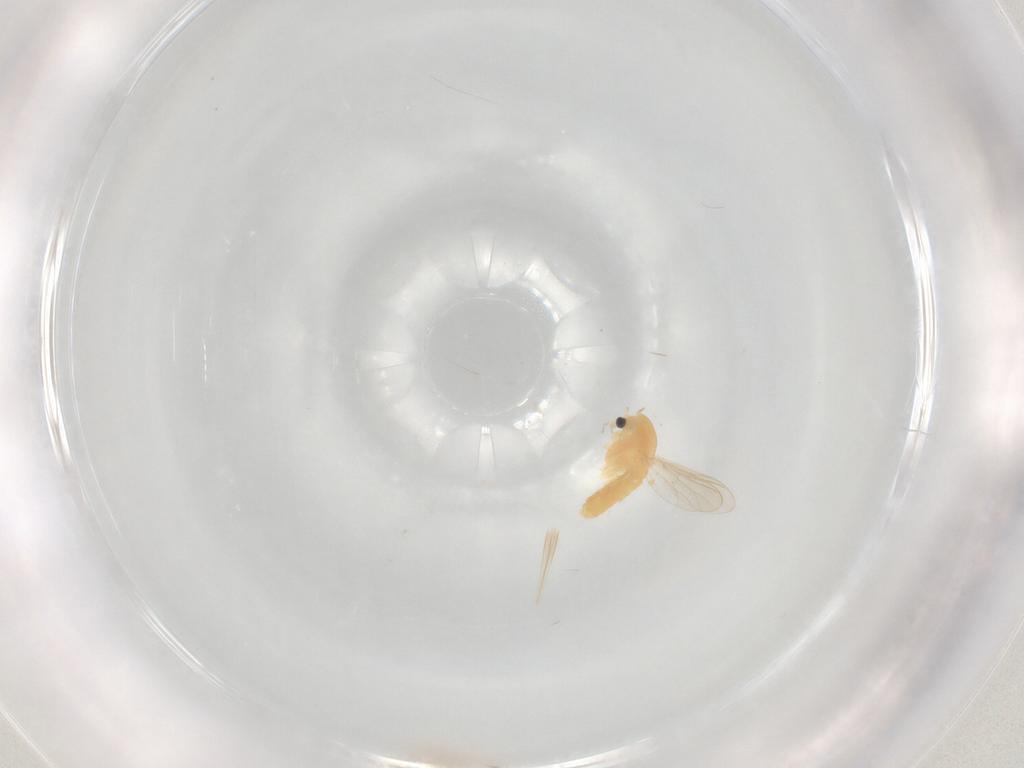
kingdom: Animalia
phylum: Arthropoda
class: Insecta
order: Diptera
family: Chironomidae
